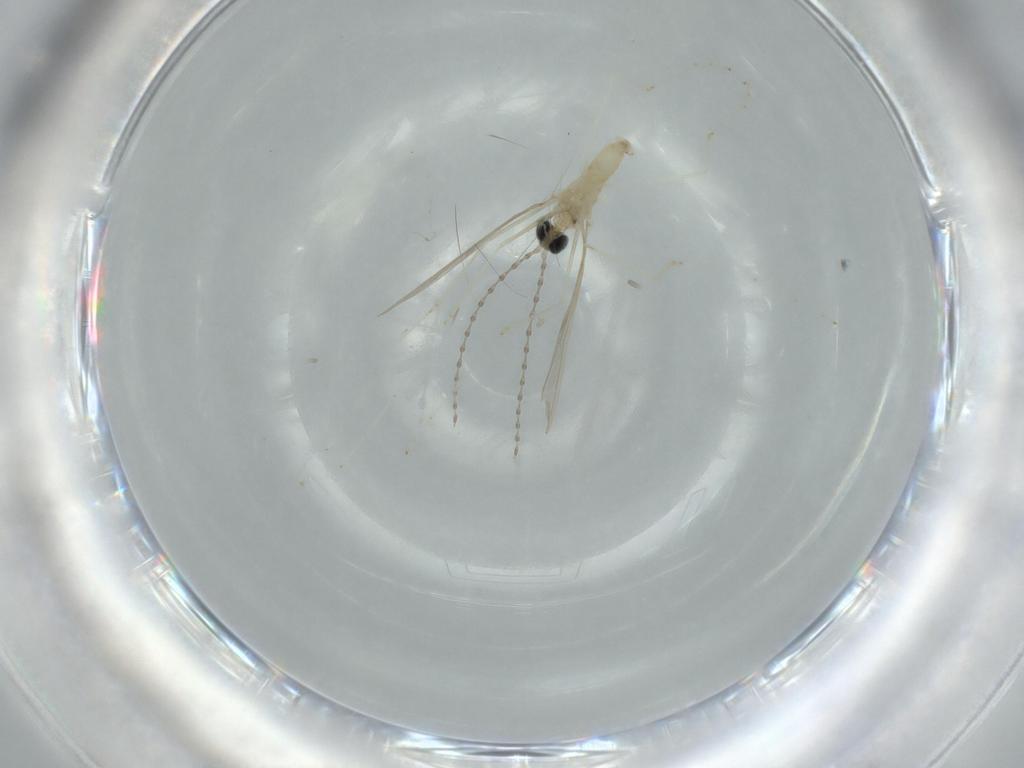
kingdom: Animalia
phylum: Arthropoda
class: Insecta
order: Diptera
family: Cecidomyiidae
